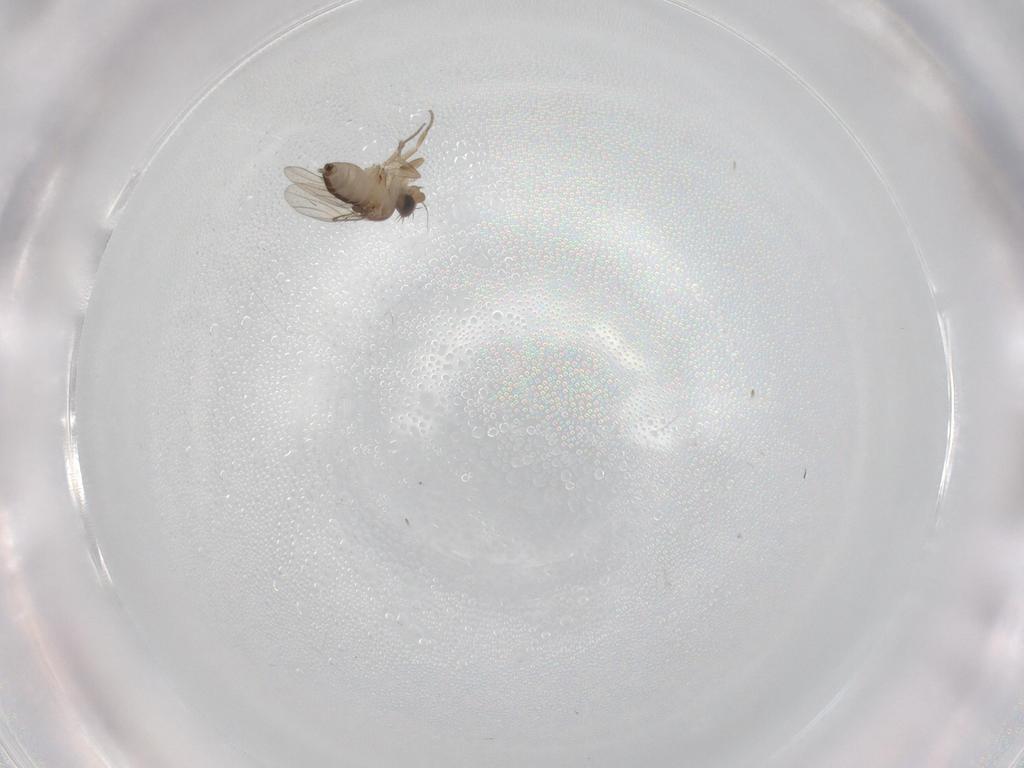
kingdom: Animalia
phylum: Arthropoda
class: Insecta
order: Diptera
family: Phoridae
